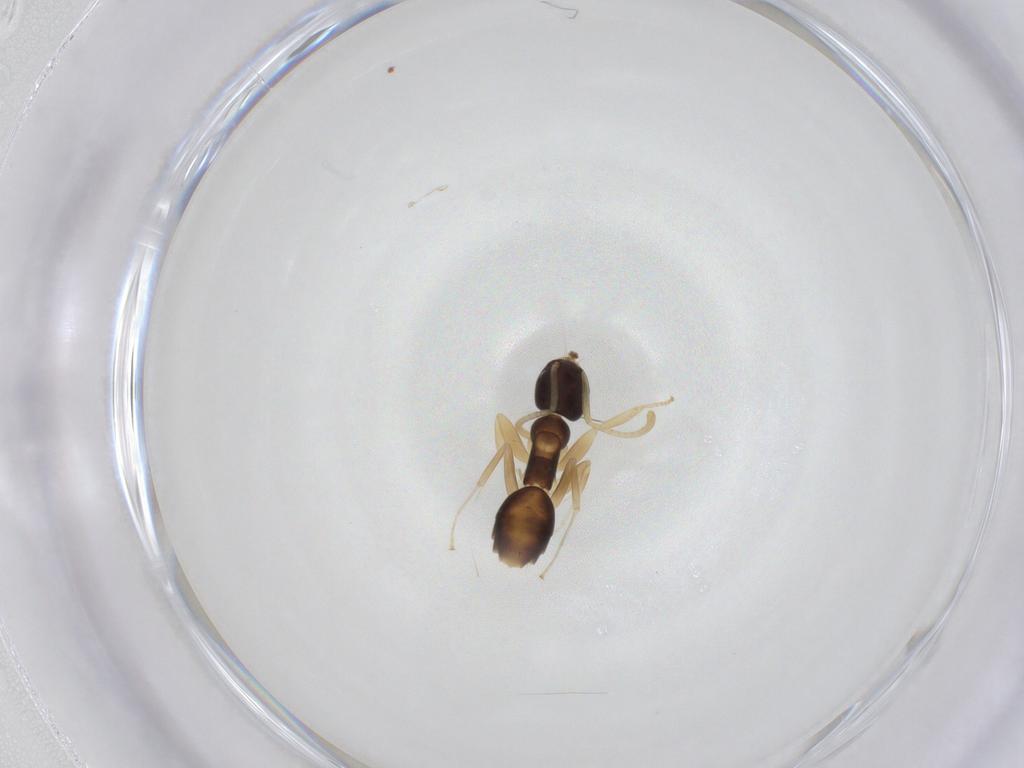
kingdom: Animalia
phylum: Arthropoda
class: Insecta
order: Hymenoptera
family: Formicidae
